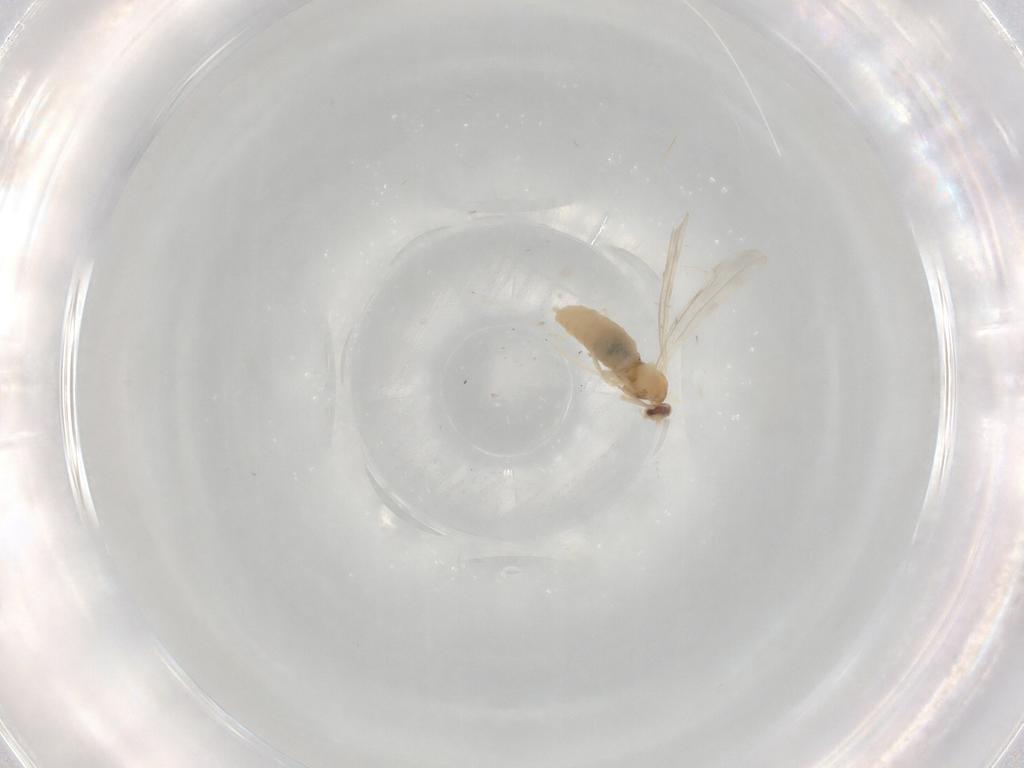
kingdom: Animalia
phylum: Arthropoda
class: Insecta
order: Diptera
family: Cecidomyiidae
